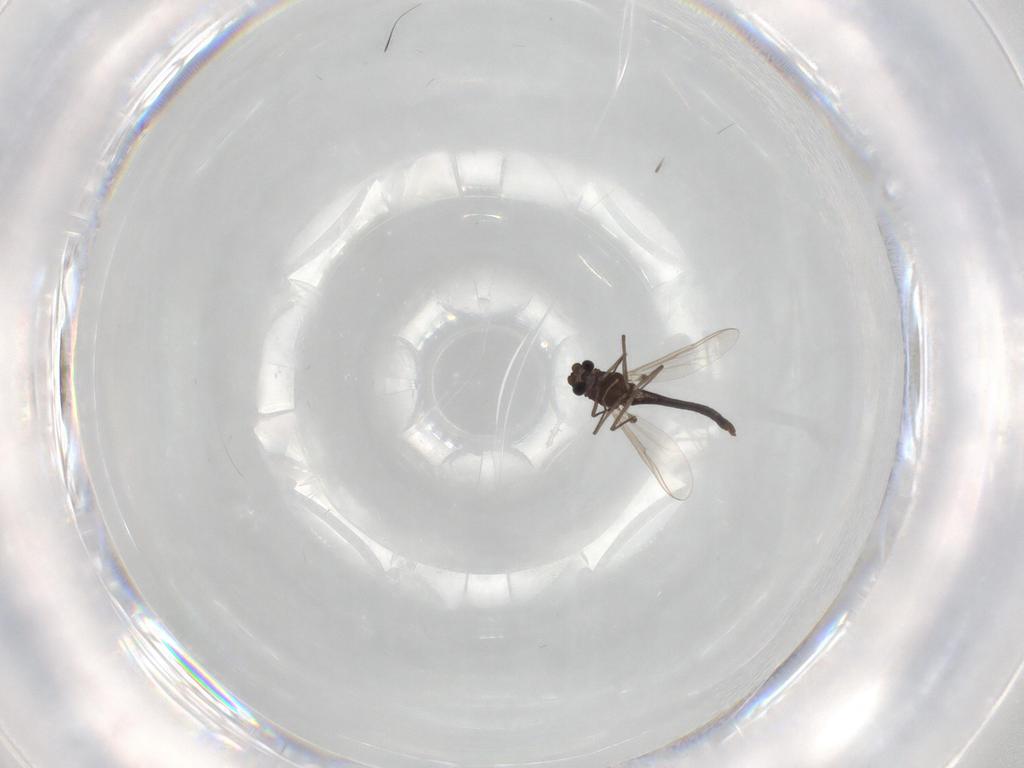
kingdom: Animalia
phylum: Arthropoda
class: Insecta
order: Diptera
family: Chironomidae
